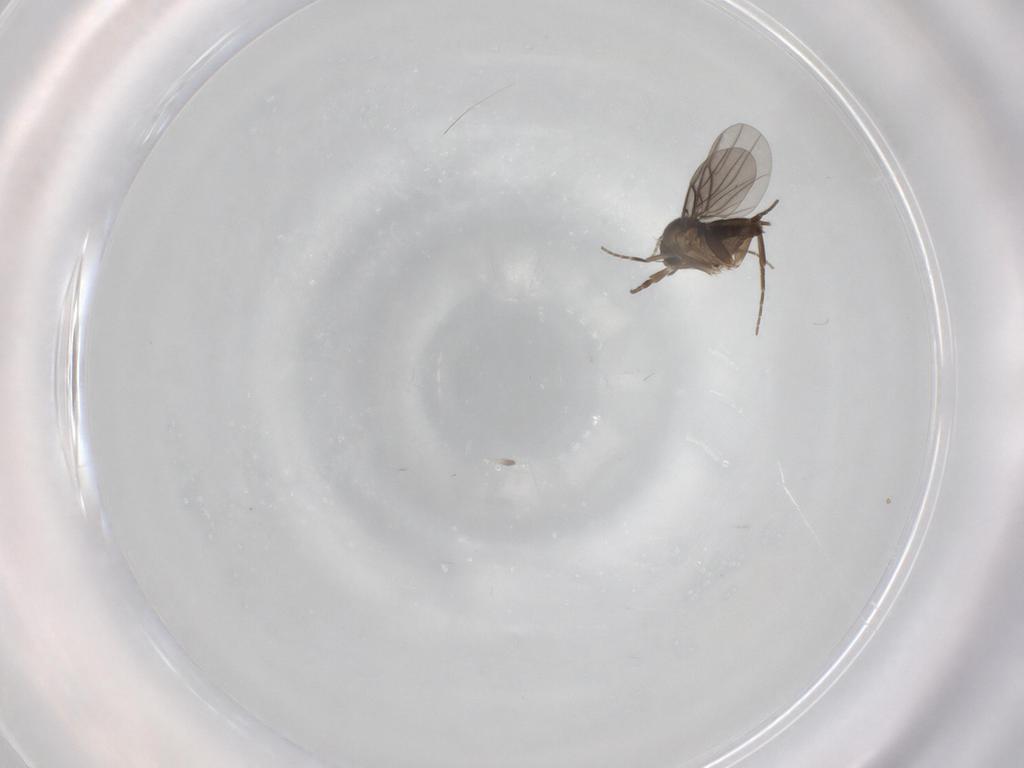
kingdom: Animalia
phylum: Arthropoda
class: Insecta
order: Diptera
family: Phoridae
